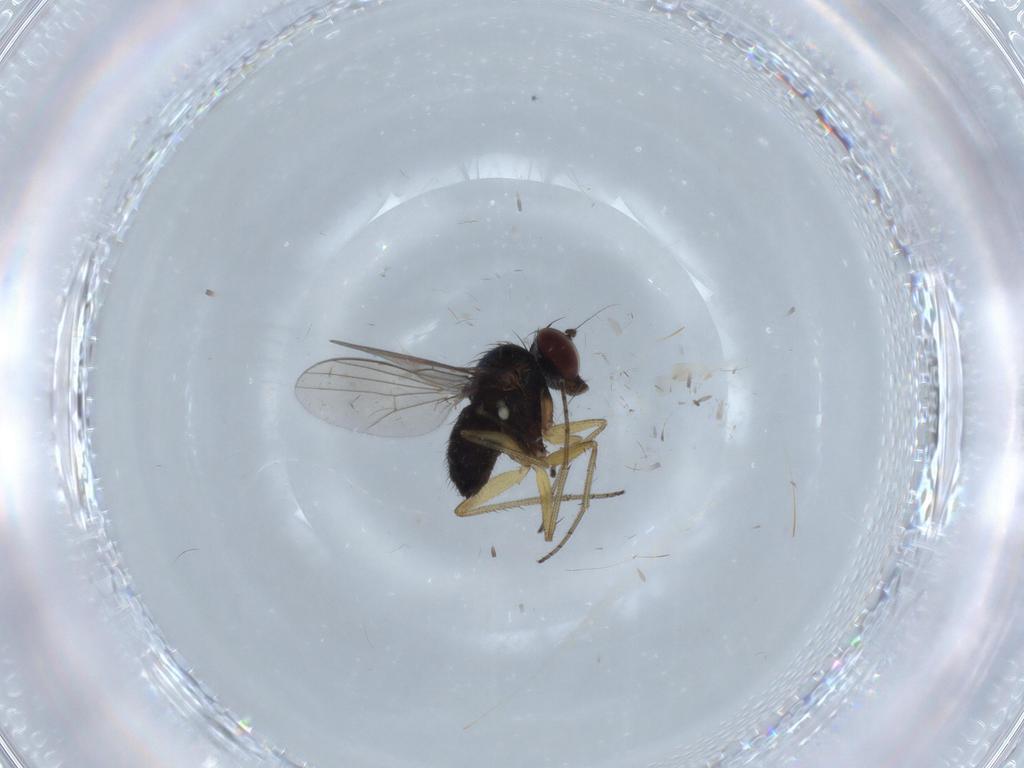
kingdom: Animalia
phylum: Arthropoda
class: Insecta
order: Diptera
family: Dolichopodidae
